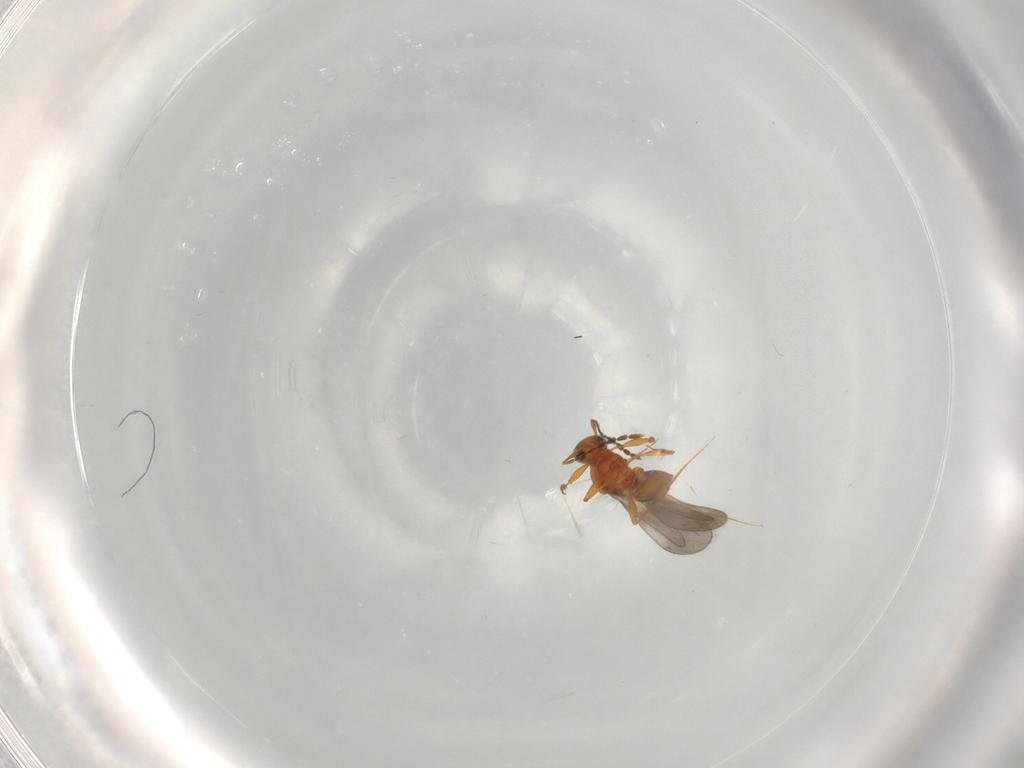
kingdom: Animalia
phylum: Arthropoda
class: Insecta
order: Hymenoptera
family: Platygastridae
